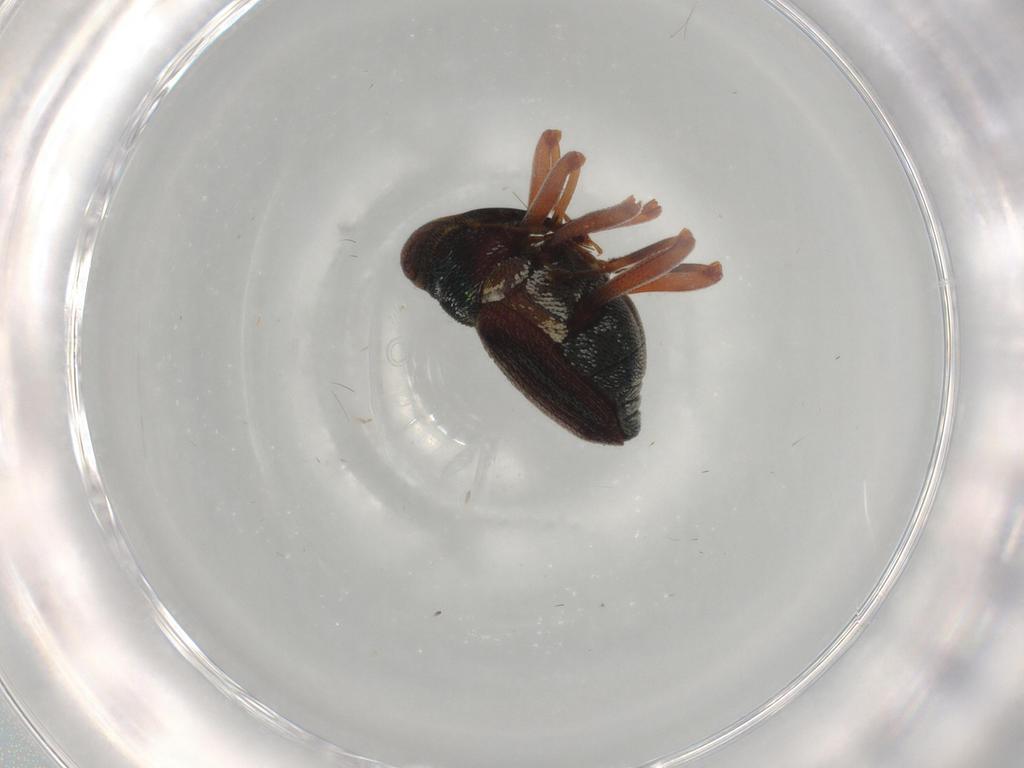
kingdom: Animalia
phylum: Arthropoda
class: Insecta
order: Coleoptera
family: Curculionidae
